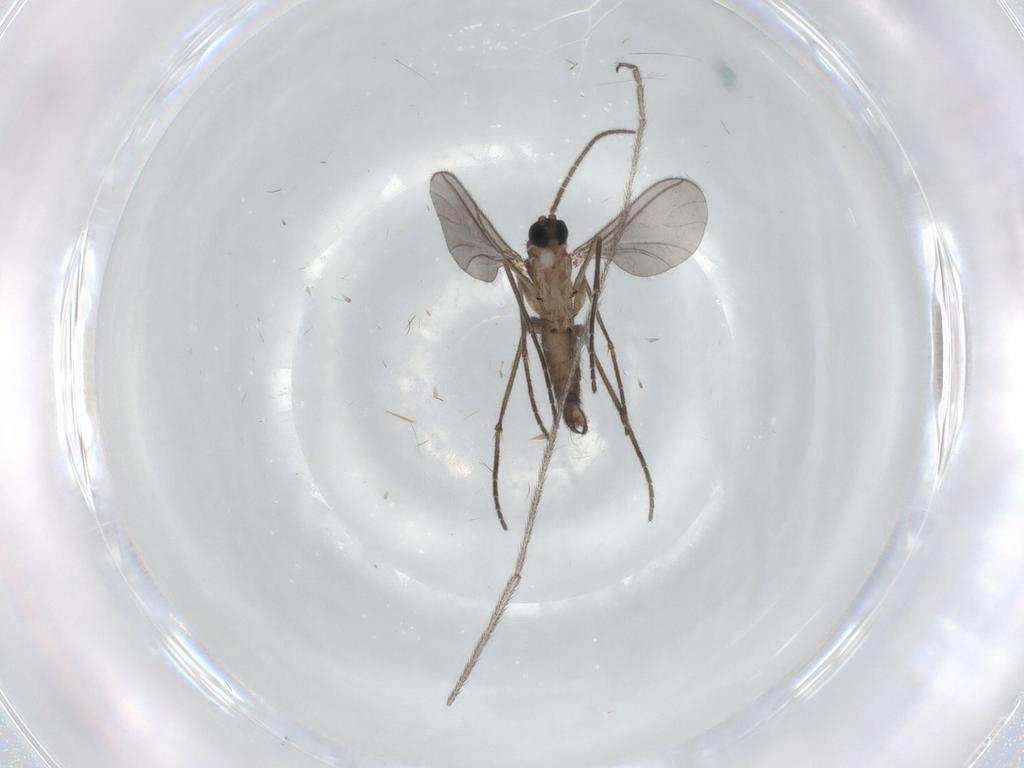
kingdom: Animalia
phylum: Arthropoda
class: Insecta
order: Diptera
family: Sciaridae
